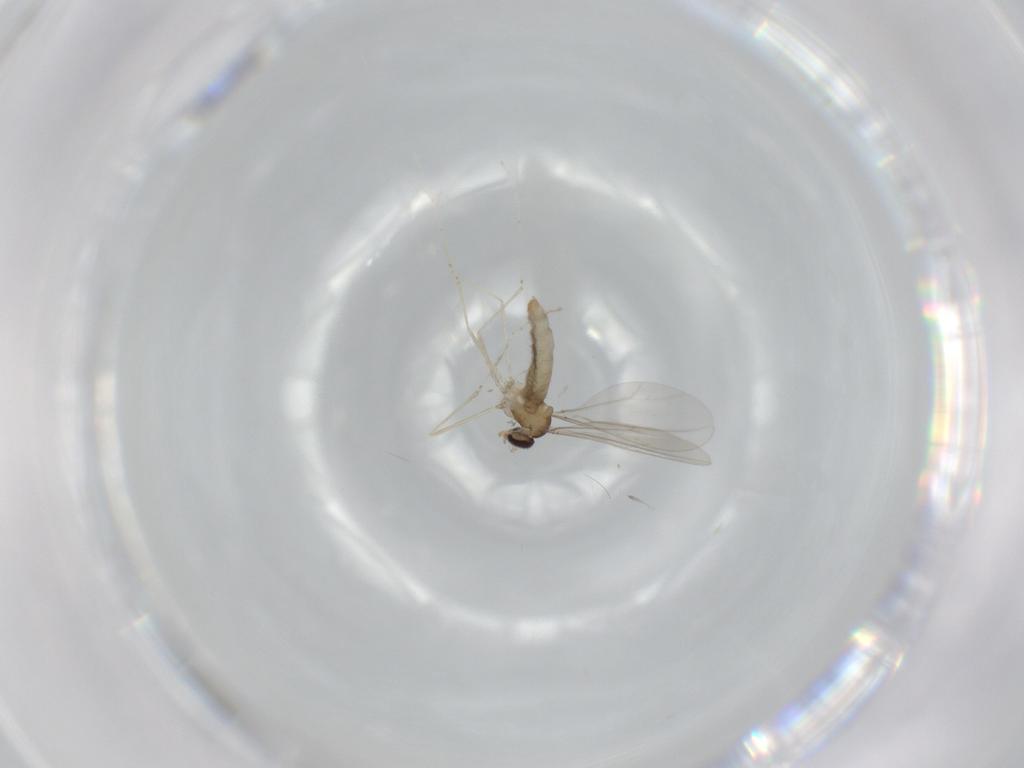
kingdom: Animalia
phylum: Arthropoda
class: Insecta
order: Diptera
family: Cecidomyiidae
